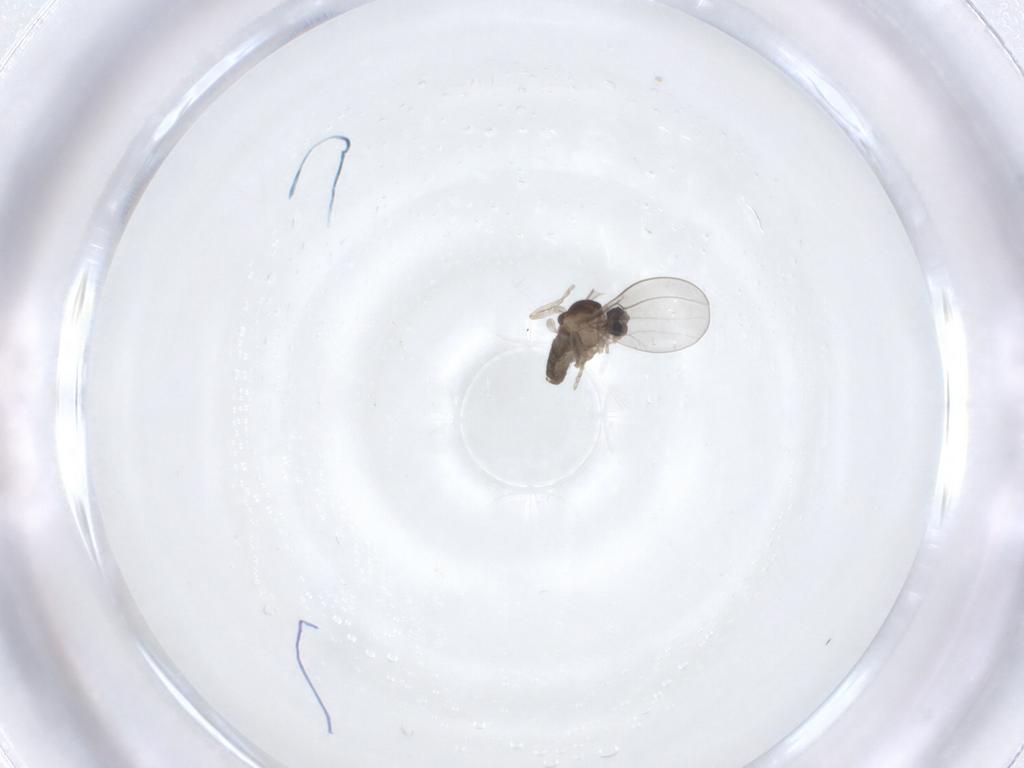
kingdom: Animalia
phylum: Arthropoda
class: Insecta
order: Diptera
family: Cecidomyiidae
